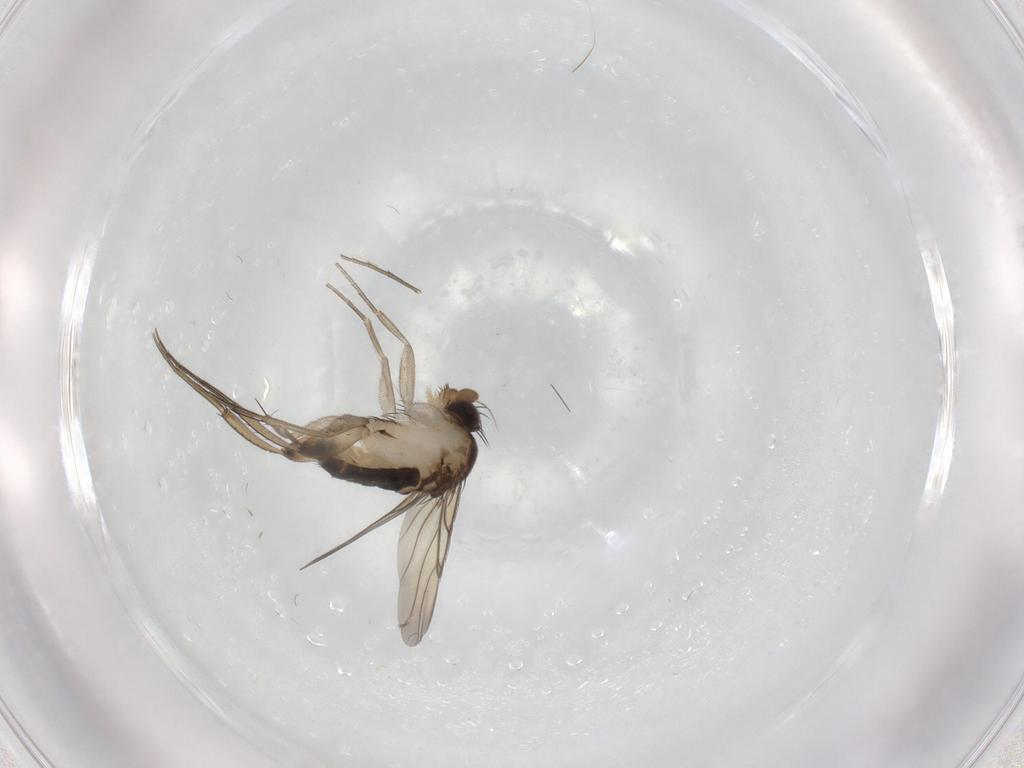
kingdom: Animalia
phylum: Arthropoda
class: Insecta
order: Diptera
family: Phoridae
